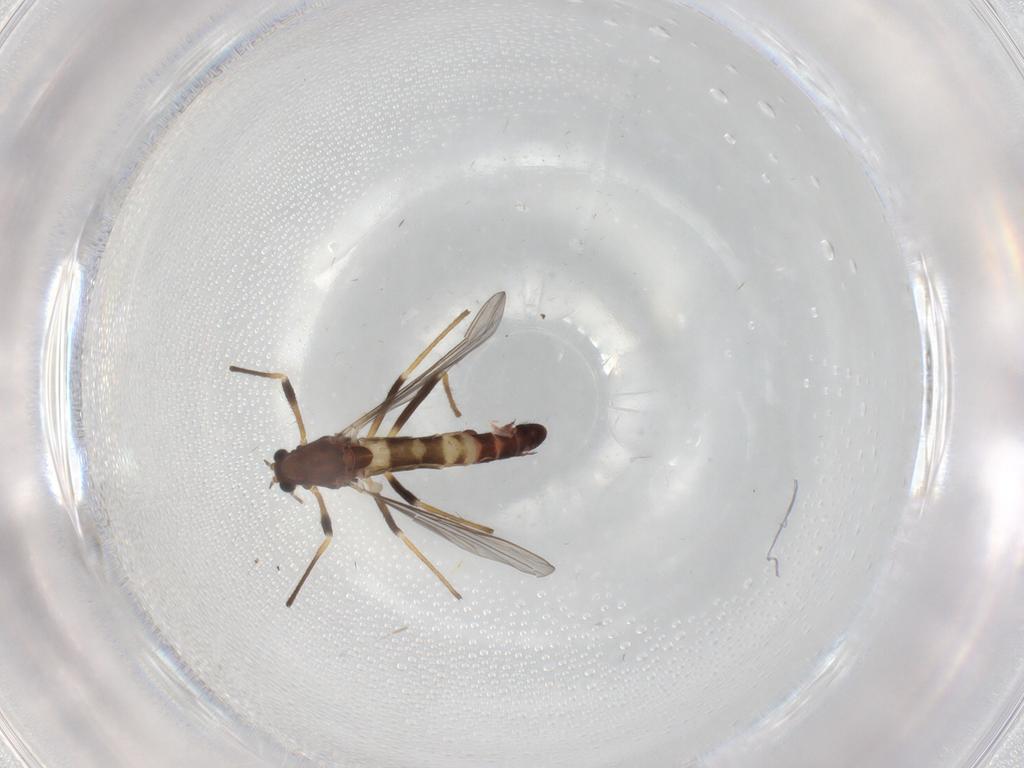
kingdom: Animalia
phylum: Arthropoda
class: Insecta
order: Diptera
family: Chironomidae
